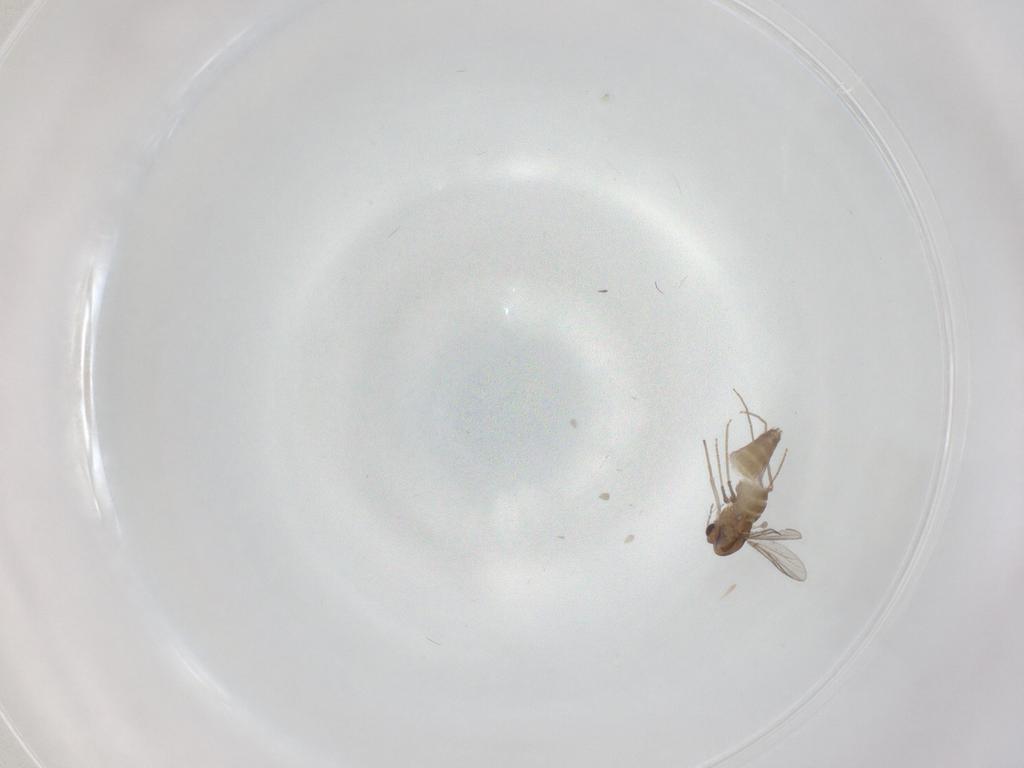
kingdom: Animalia
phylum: Arthropoda
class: Insecta
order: Diptera
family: Chironomidae
